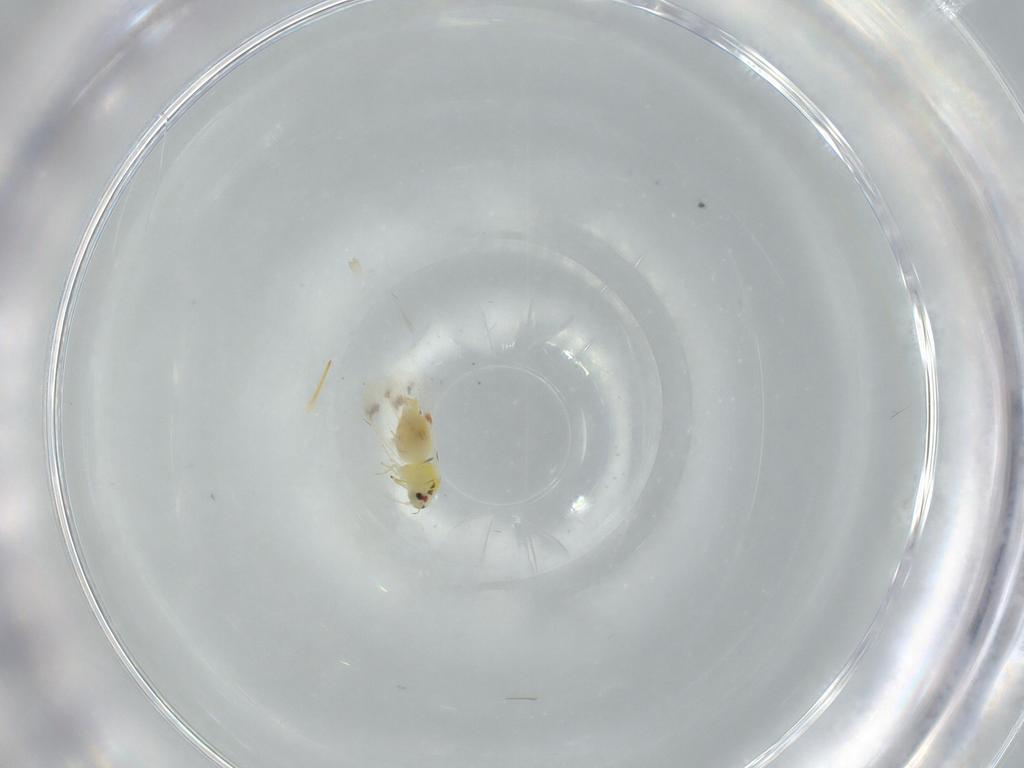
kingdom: Animalia
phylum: Arthropoda
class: Insecta
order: Hemiptera
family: Aleyrodidae
